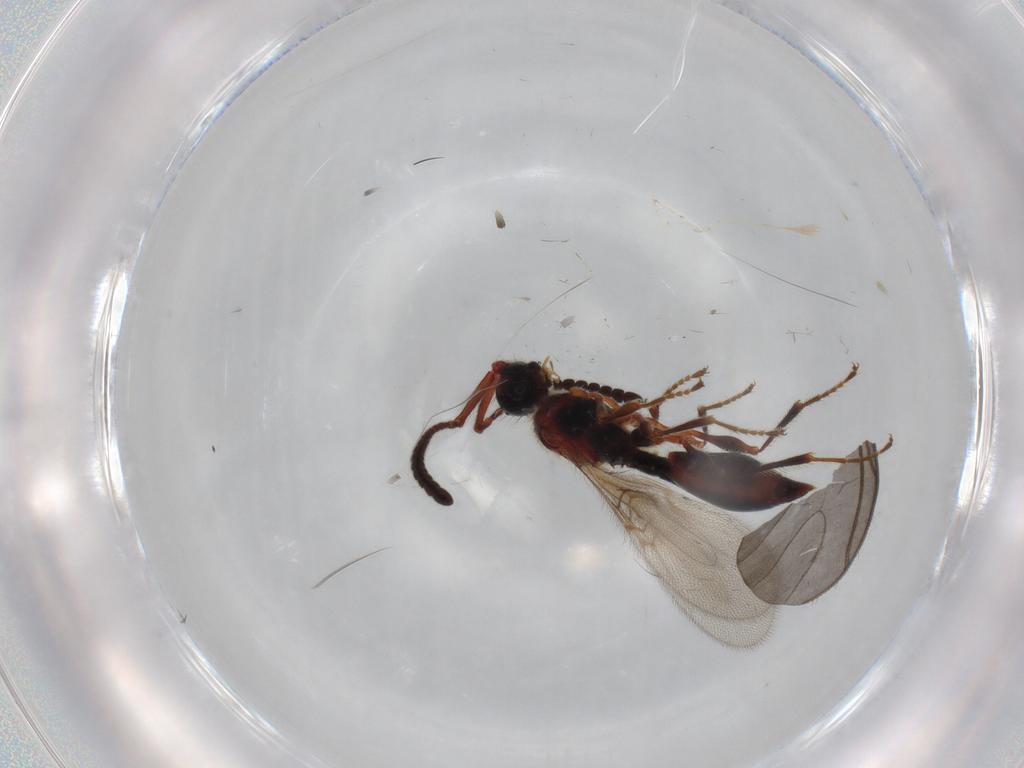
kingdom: Animalia
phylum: Arthropoda
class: Insecta
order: Hymenoptera
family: Diapriidae
